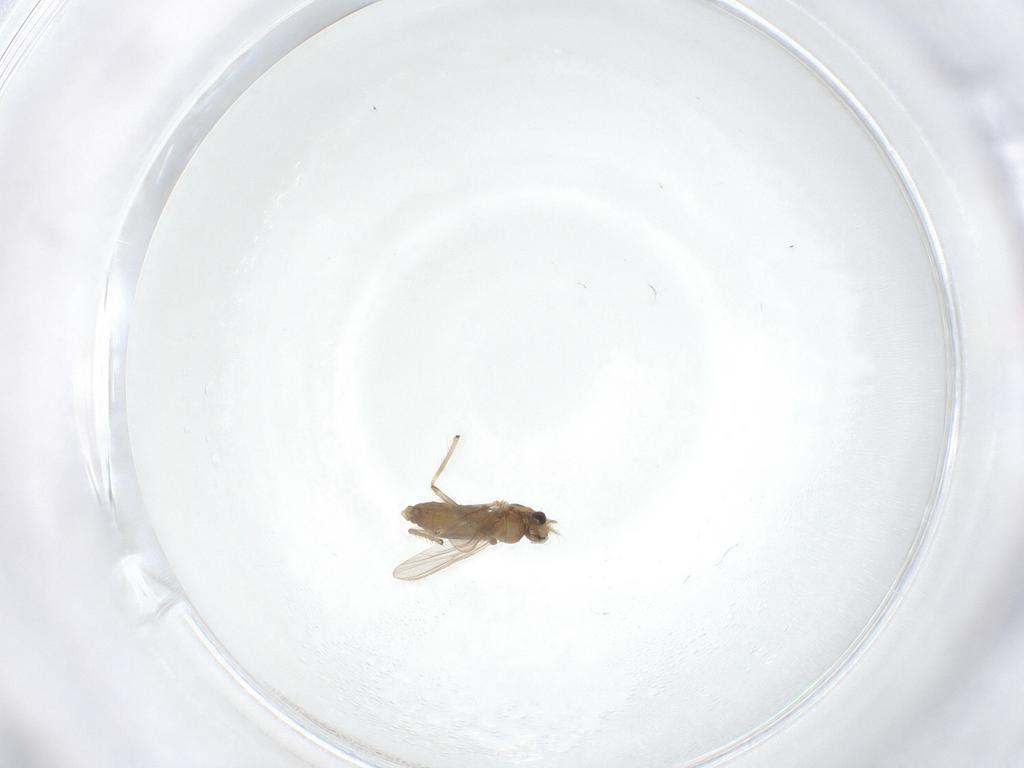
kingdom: Animalia
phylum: Arthropoda
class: Insecta
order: Diptera
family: Chironomidae
